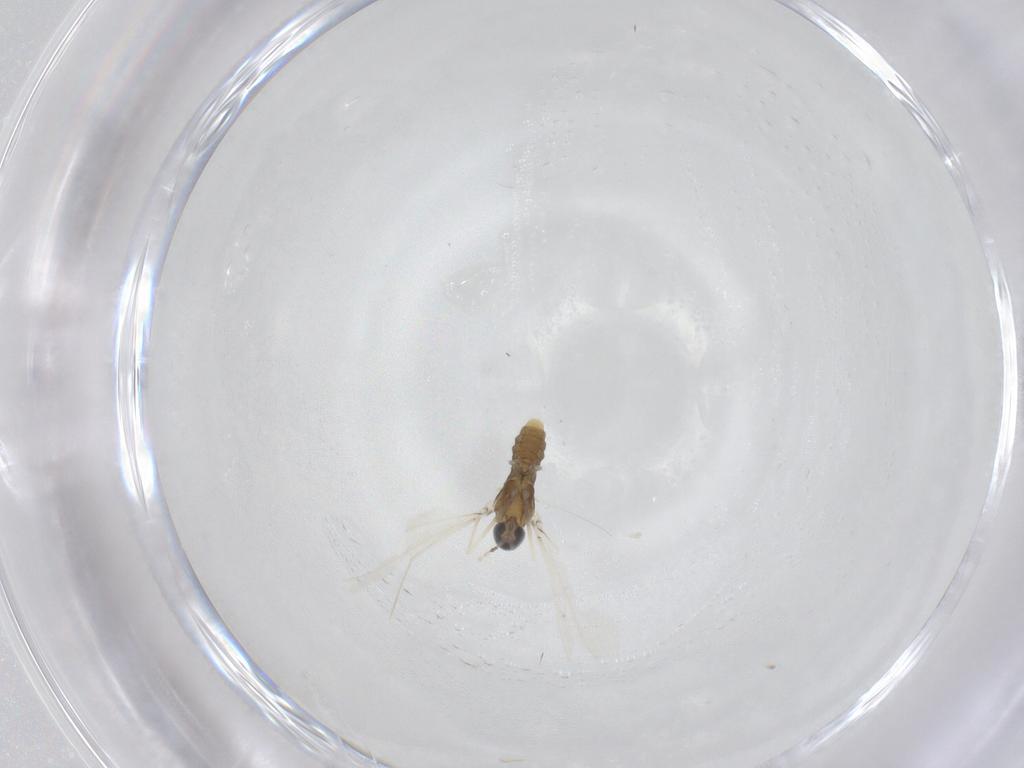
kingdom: Animalia
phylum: Arthropoda
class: Insecta
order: Diptera
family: Cecidomyiidae
